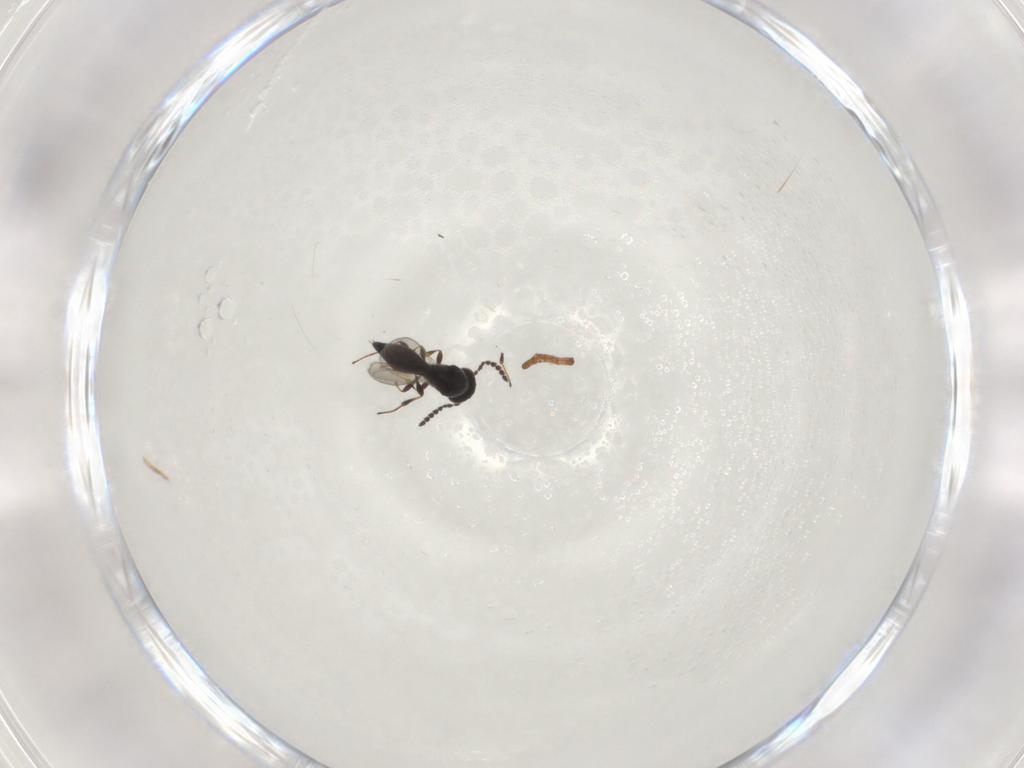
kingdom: Animalia
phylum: Arthropoda
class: Insecta
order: Hymenoptera
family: Platygastridae
